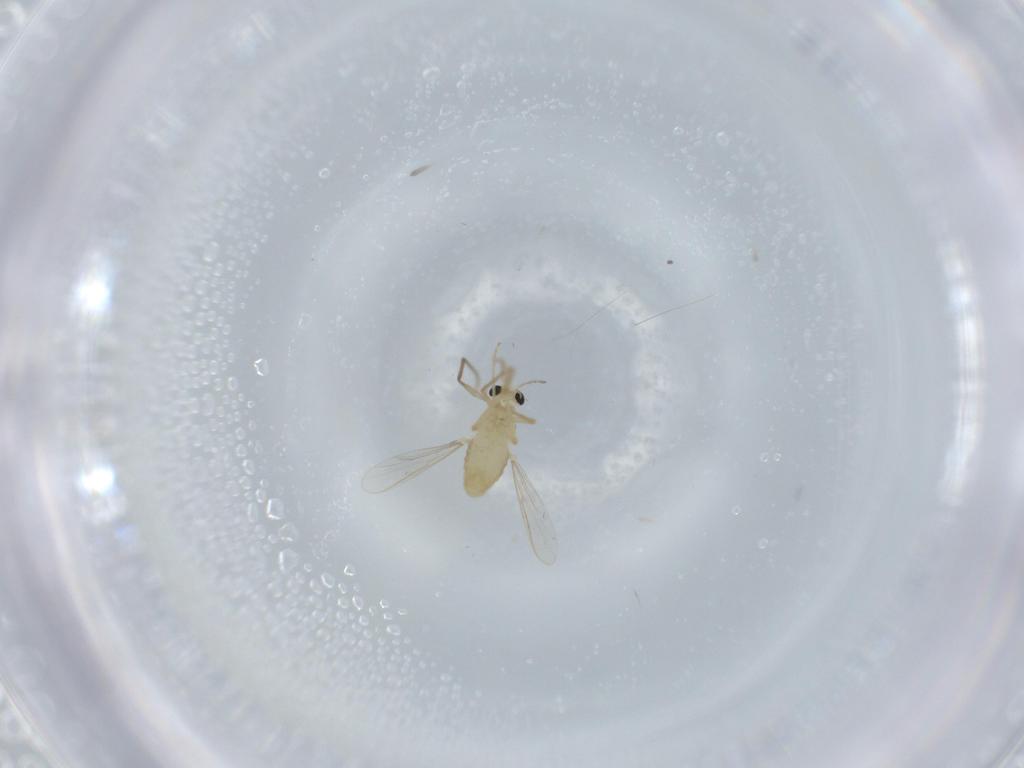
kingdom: Animalia
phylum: Arthropoda
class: Insecta
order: Diptera
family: Chironomidae
